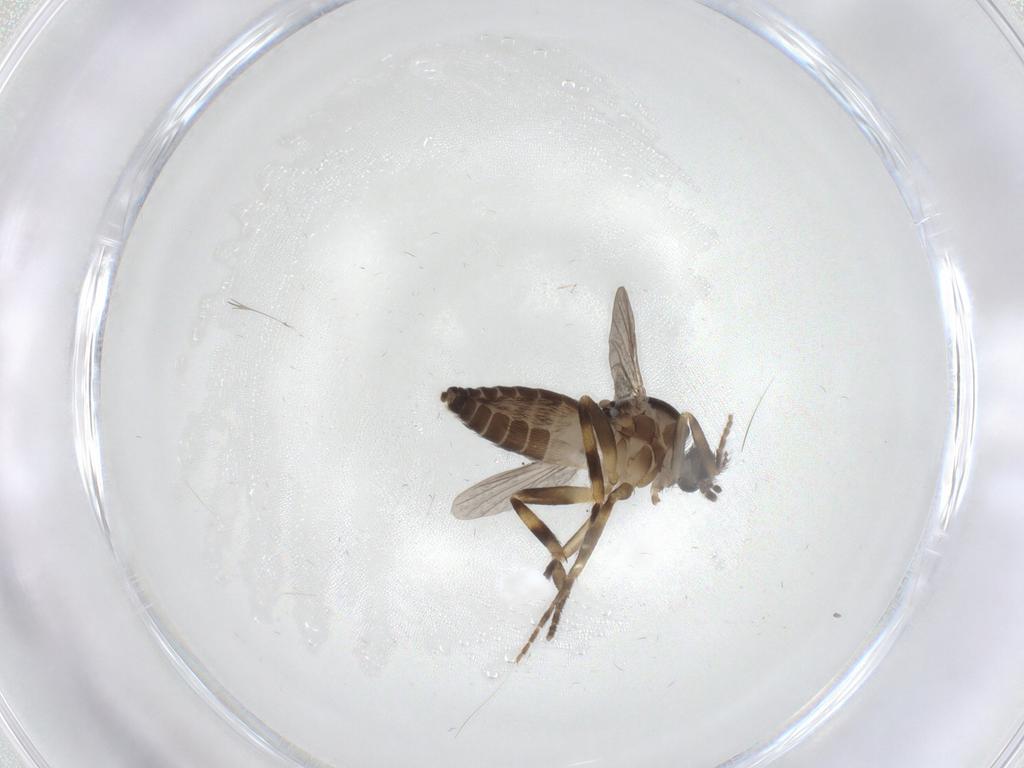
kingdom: Animalia
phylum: Arthropoda
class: Insecta
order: Diptera
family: Ceratopogonidae
